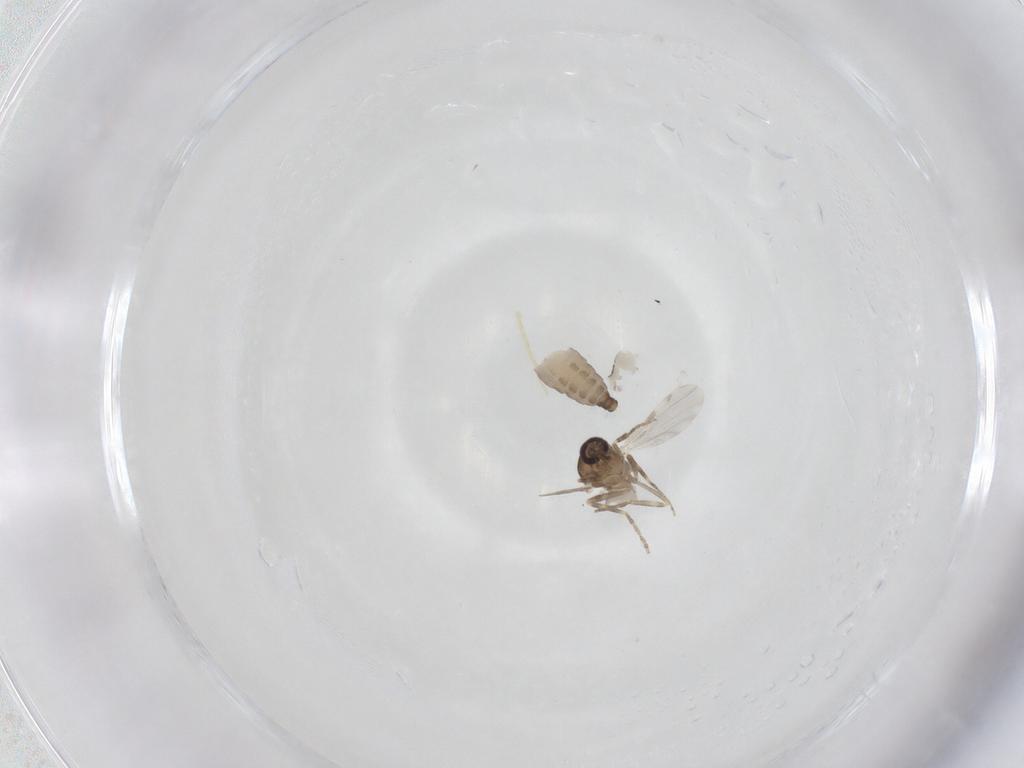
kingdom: Animalia
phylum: Arthropoda
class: Insecta
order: Diptera
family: Ceratopogonidae
